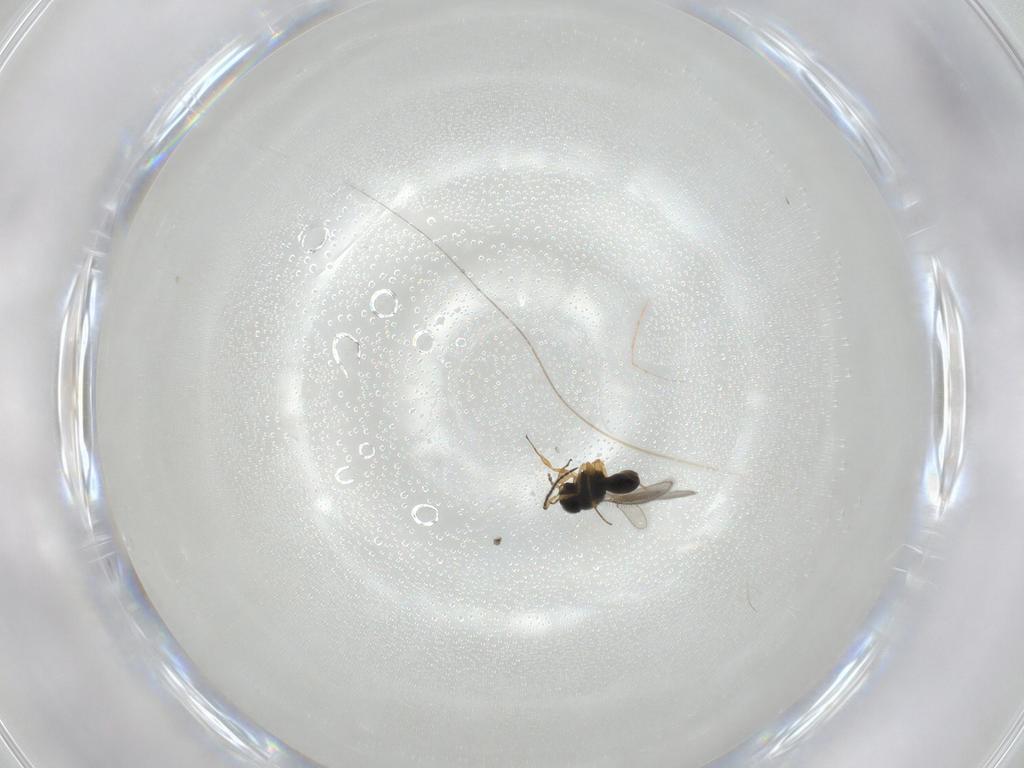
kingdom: Animalia
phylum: Arthropoda
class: Insecta
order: Hymenoptera
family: Scelionidae
